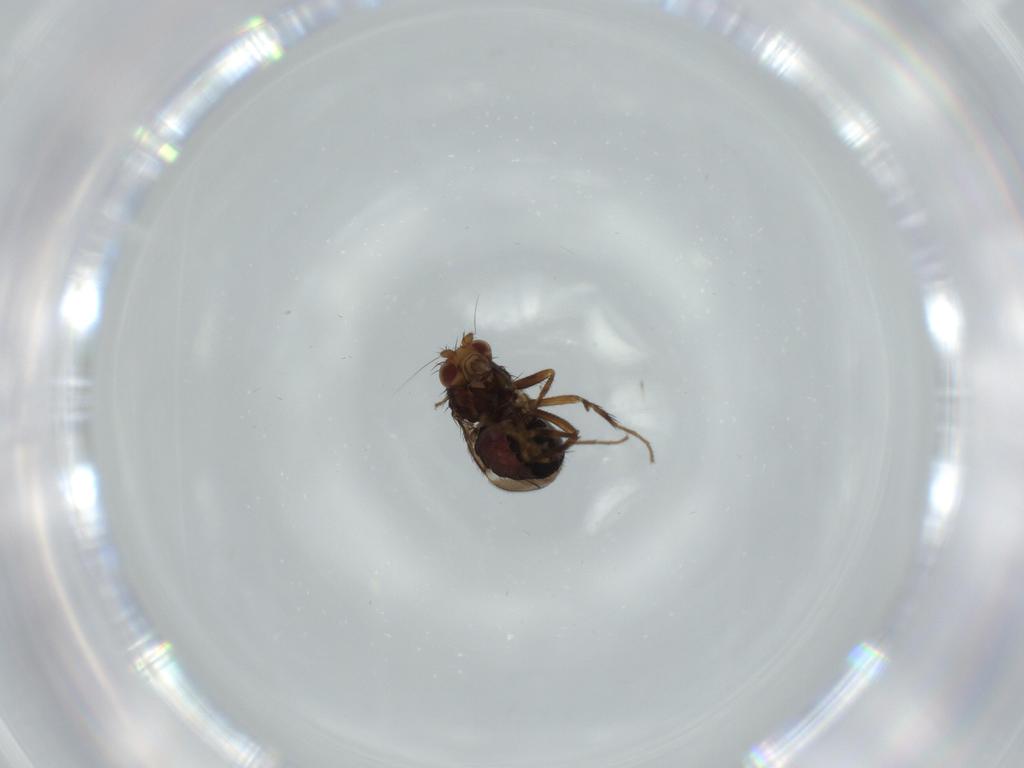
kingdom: Animalia
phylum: Arthropoda
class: Insecta
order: Diptera
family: Sphaeroceridae
